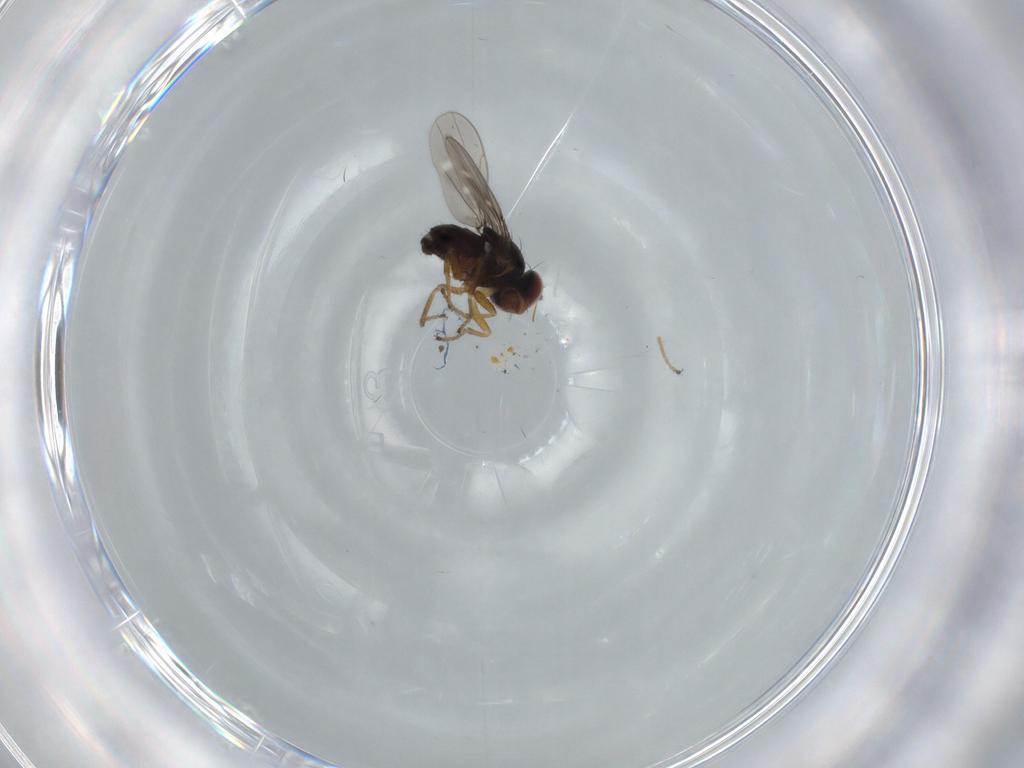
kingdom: Animalia
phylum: Arthropoda
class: Insecta
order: Diptera
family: Ephydridae
